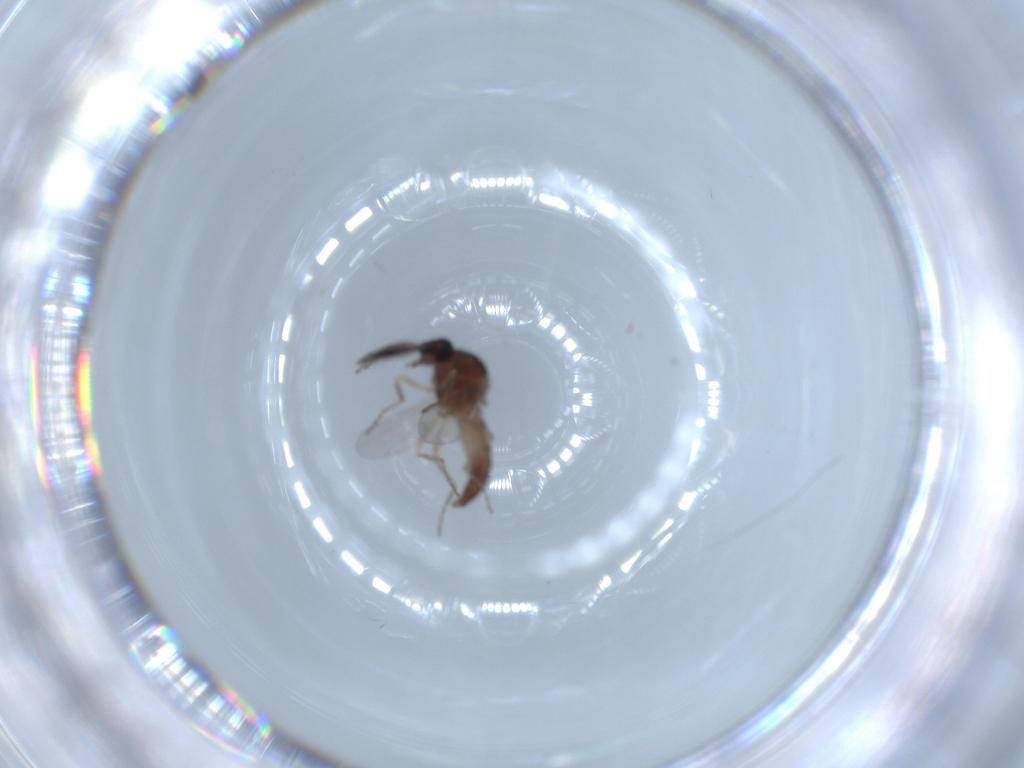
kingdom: Animalia
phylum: Arthropoda
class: Insecta
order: Diptera
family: Ceratopogonidae
